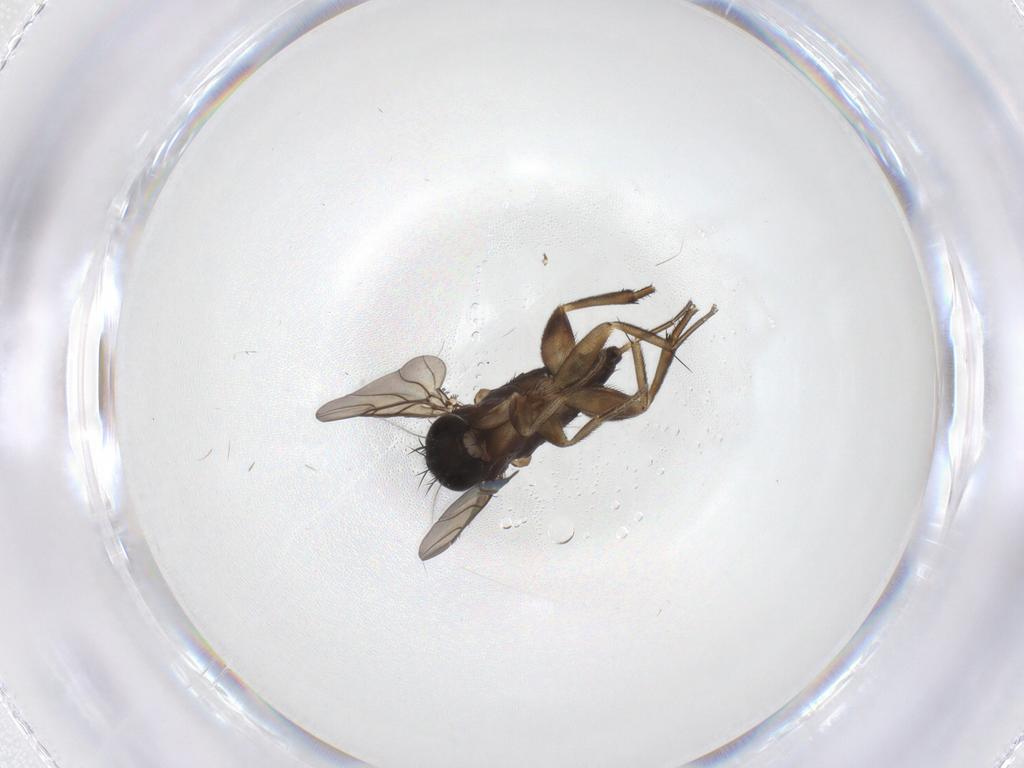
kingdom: Animalia
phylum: Arthropoda
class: Insecta
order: Diptera
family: Phoridae
